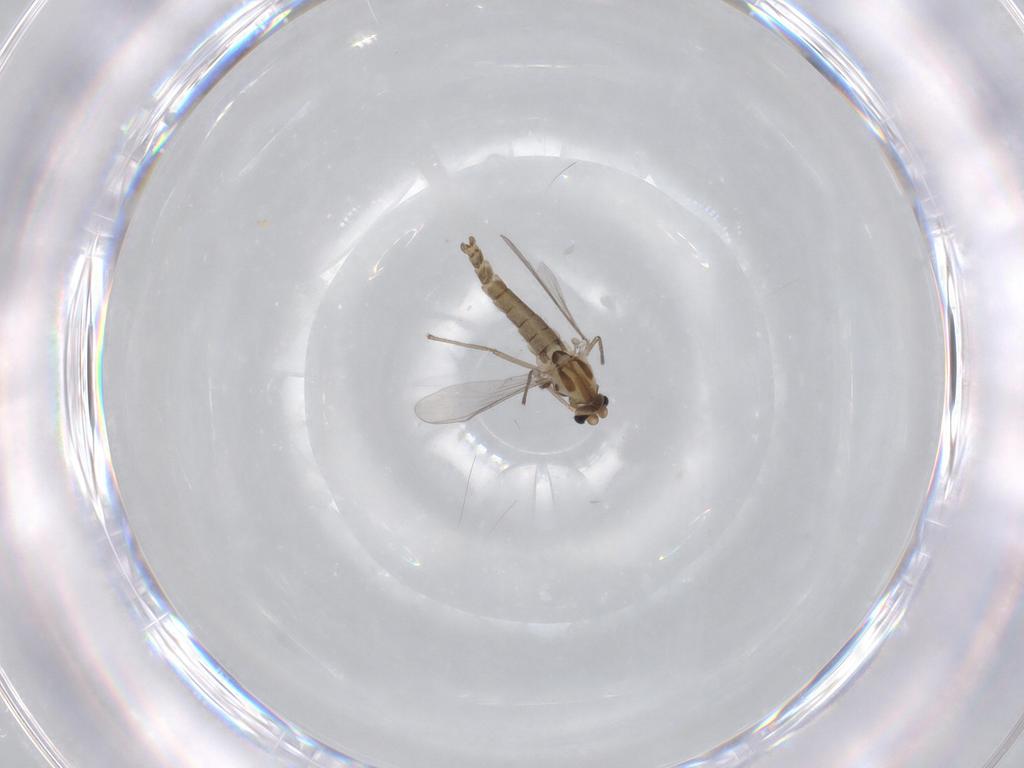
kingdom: Animalia
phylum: Arthropoda
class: Insecta
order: Diptera
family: Chironomidae
